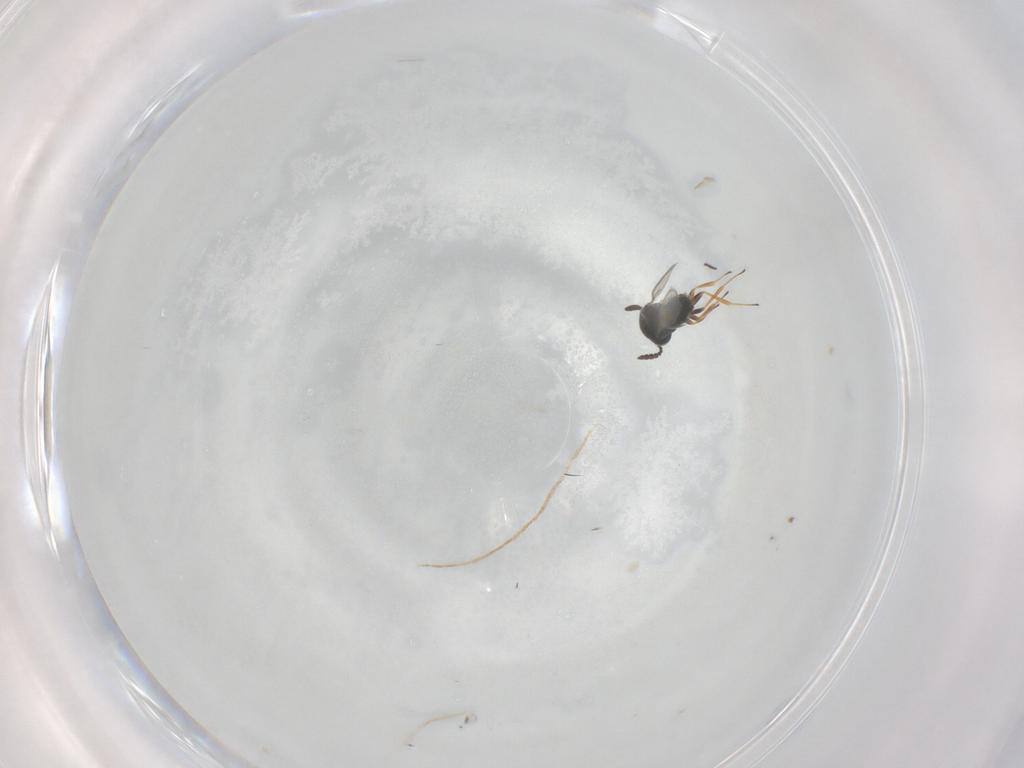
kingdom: Animalia
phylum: Arthropoda
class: Insecta
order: Hymenoptera
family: Scelionidae
